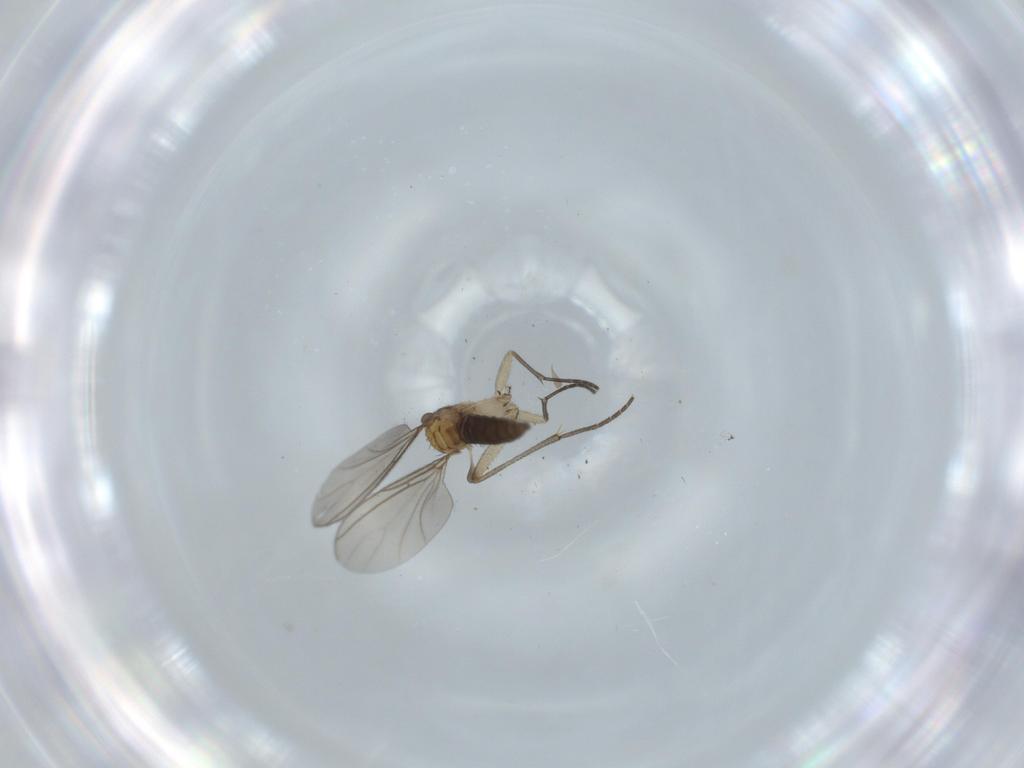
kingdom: Animalia
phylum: Arthropoda
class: Insecta
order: Diptera
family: Sciaridae
